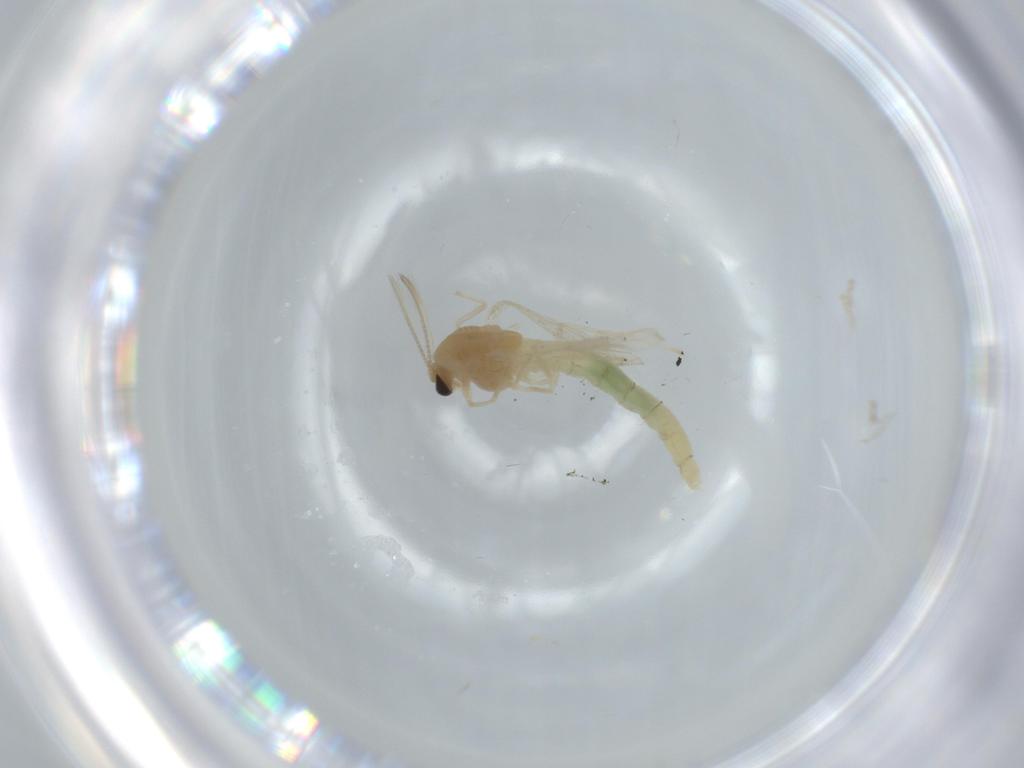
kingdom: Animalia
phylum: Arthropoda
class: Insecta
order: Diptera
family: Chironomidae
